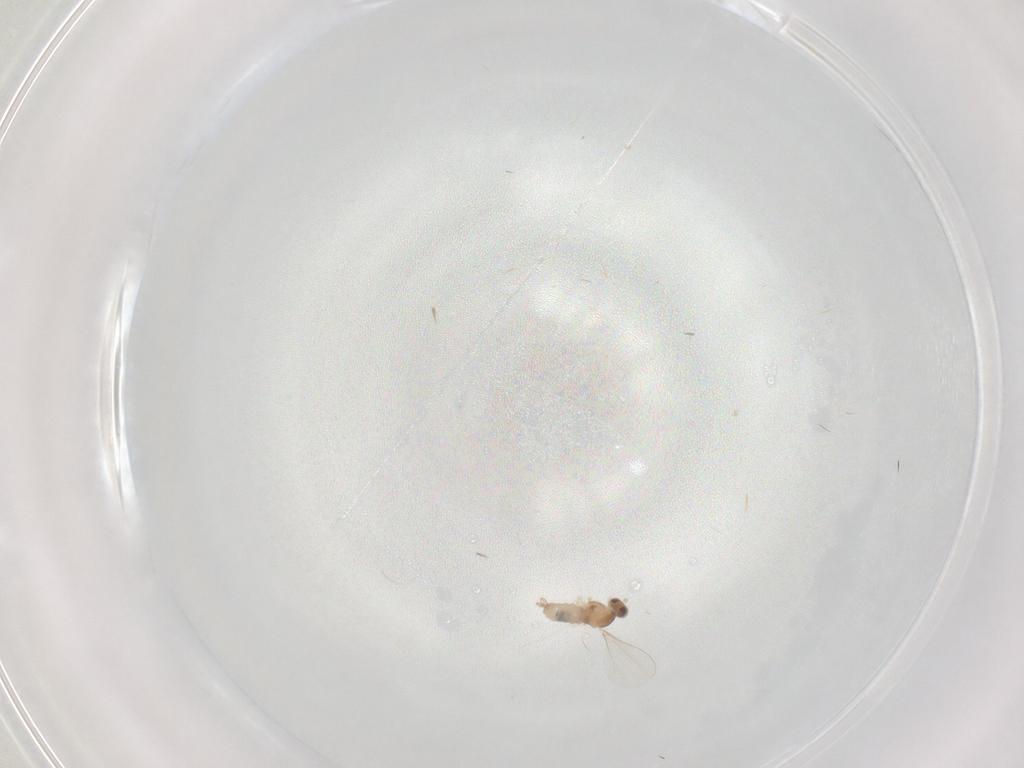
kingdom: Animalia
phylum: Arthropoda
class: Insecta
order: Diptera
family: Cecidomyiidae
